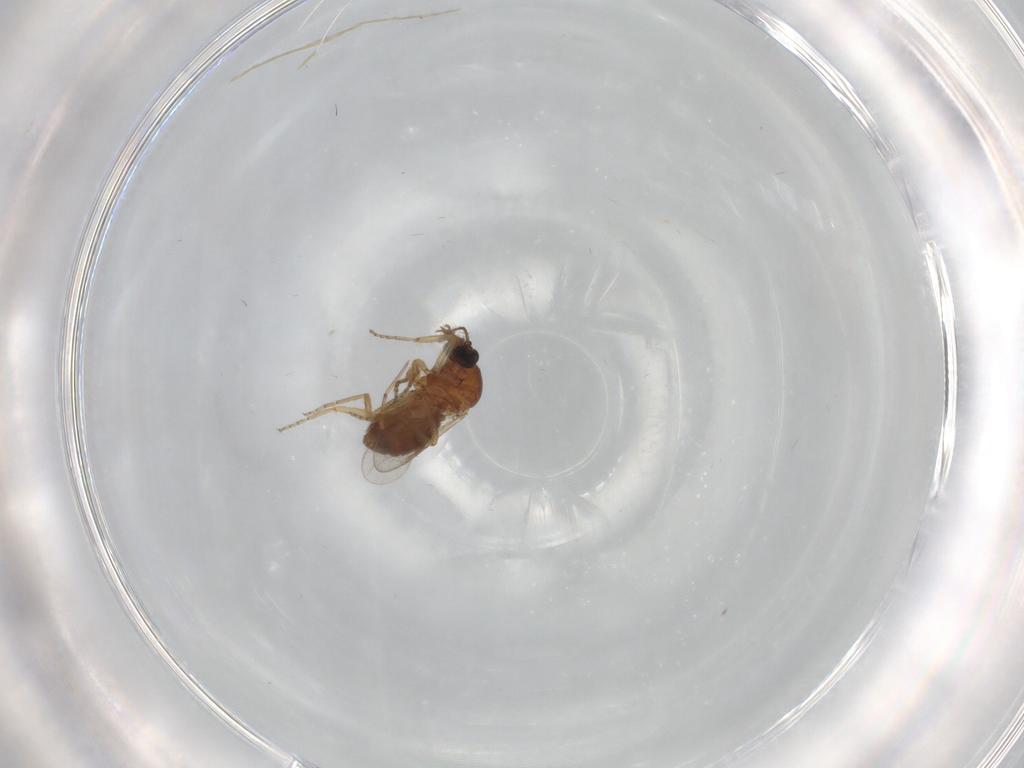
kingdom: Animalia
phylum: Arthropoda
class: Insecta
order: Diptera
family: Ceratopogonidae
